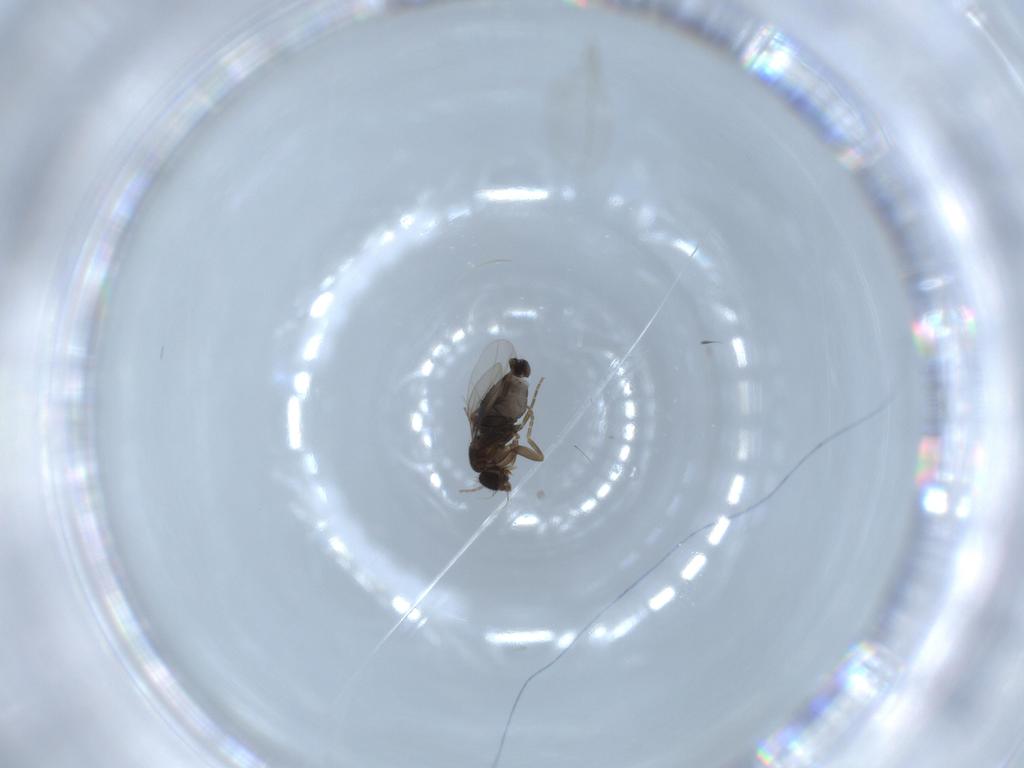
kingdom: Animalia
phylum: Arthropoda
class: Insecta
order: Diptera
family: Phoridae
